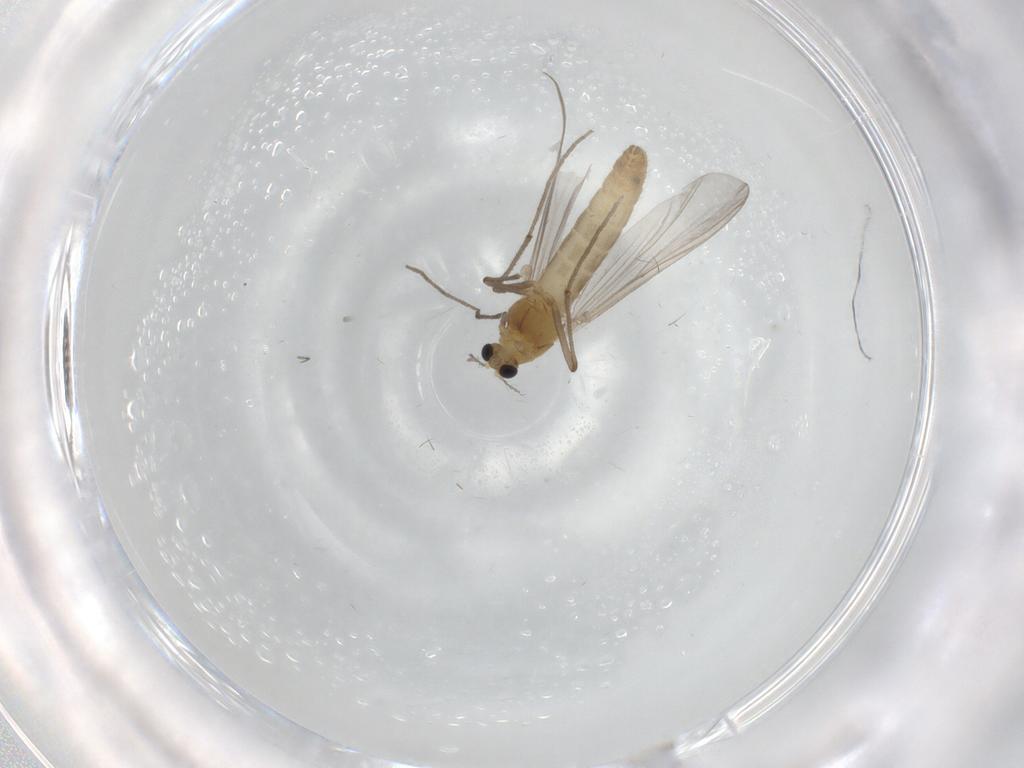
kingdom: Animalia
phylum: Arthropoda
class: Insecta
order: Diptera
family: Chironomidae
